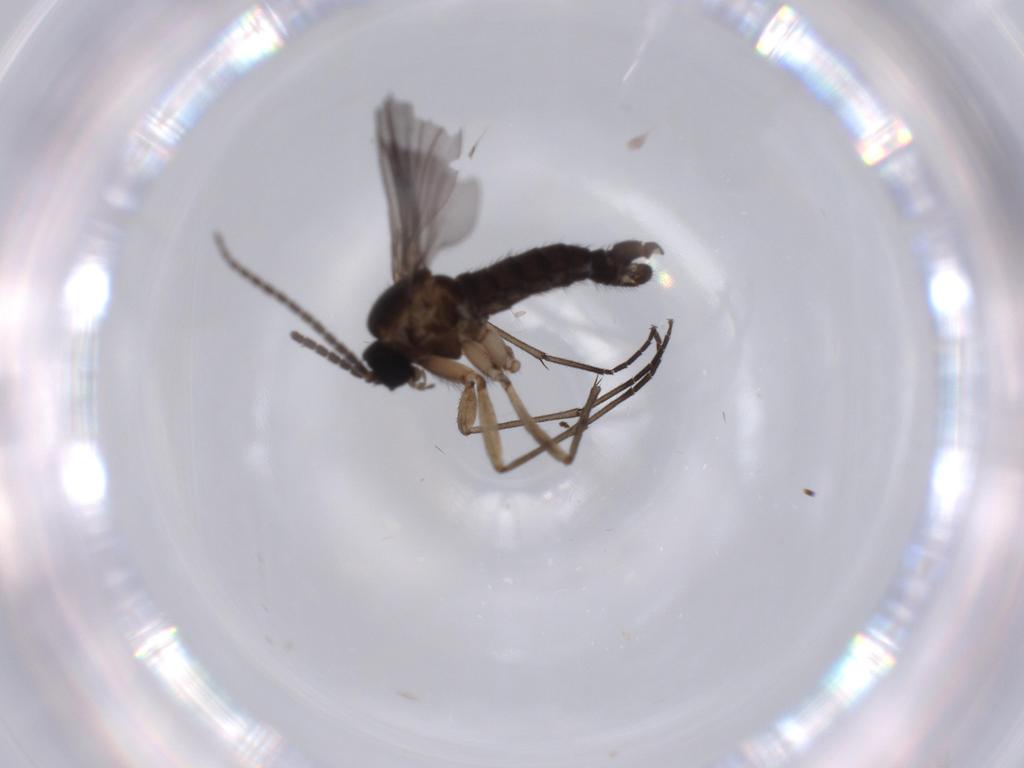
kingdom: Animalia
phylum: Arthropoda
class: Insecta
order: Diptera
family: Sciaridae
